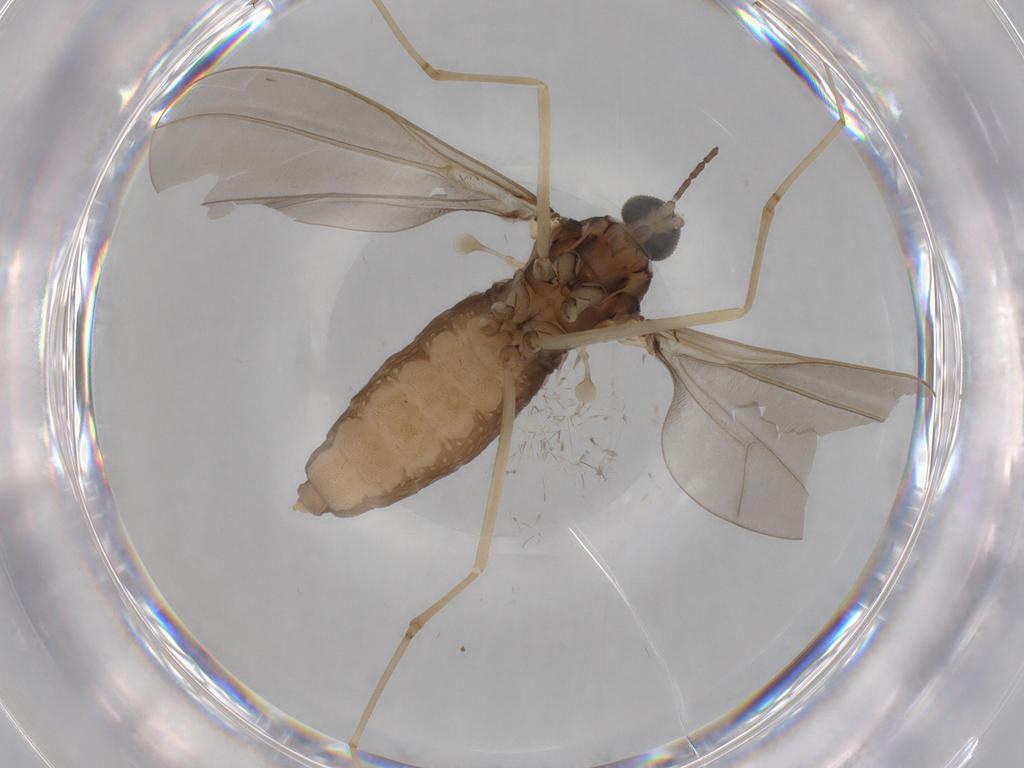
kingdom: Animalia
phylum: Arthropoda
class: Insecta
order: Diptera
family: Cecidomyiidae
